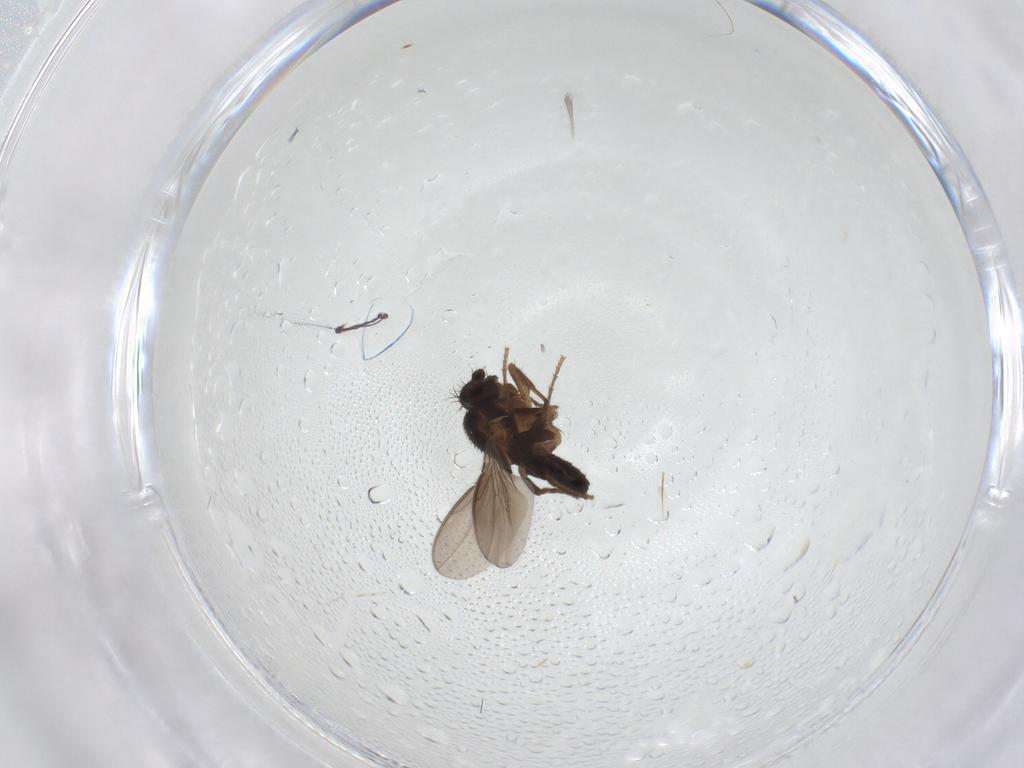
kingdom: Animalia
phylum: Arthropoda
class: Insecta
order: Diptera
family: Sphaeroceridae
